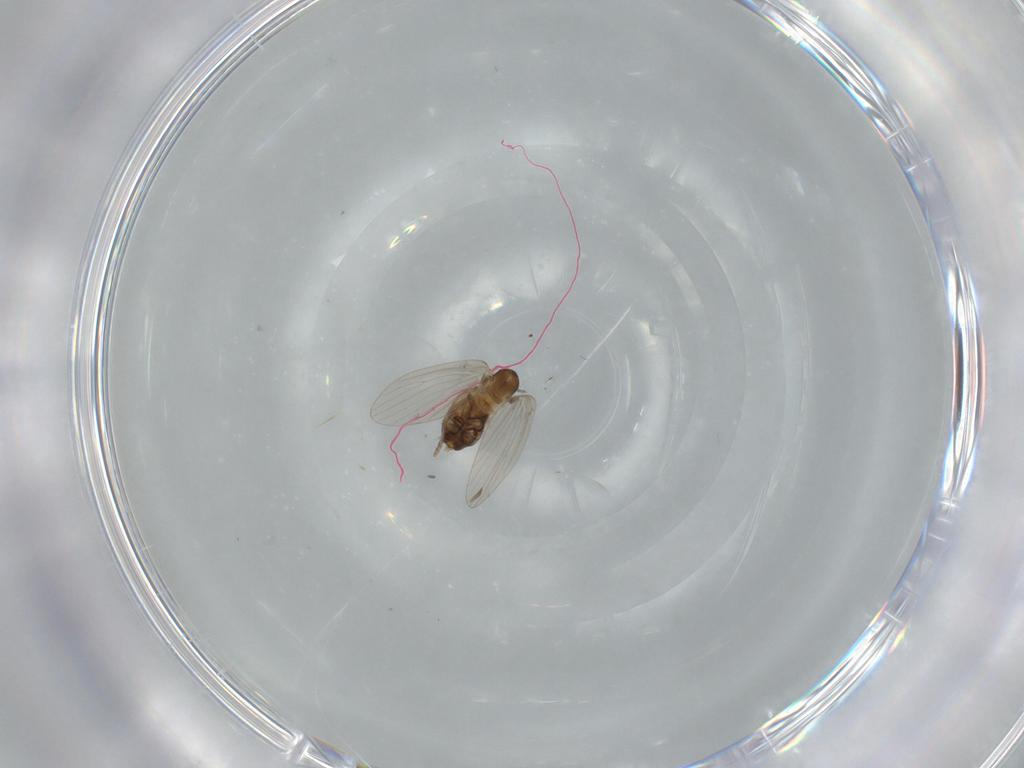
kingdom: Animalia
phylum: Arthropoda
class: Insecta
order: Diptera
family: Psychodidae
